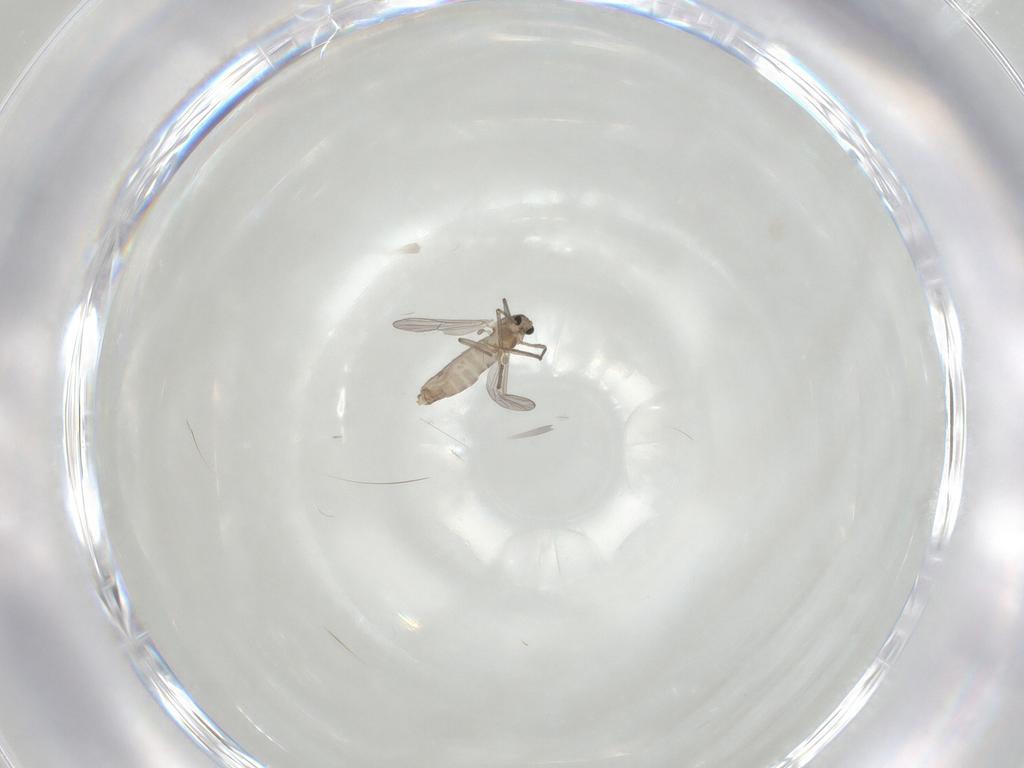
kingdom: Animalia
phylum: Arthropoda
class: Insecta
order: Diptera
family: Chironomidae
